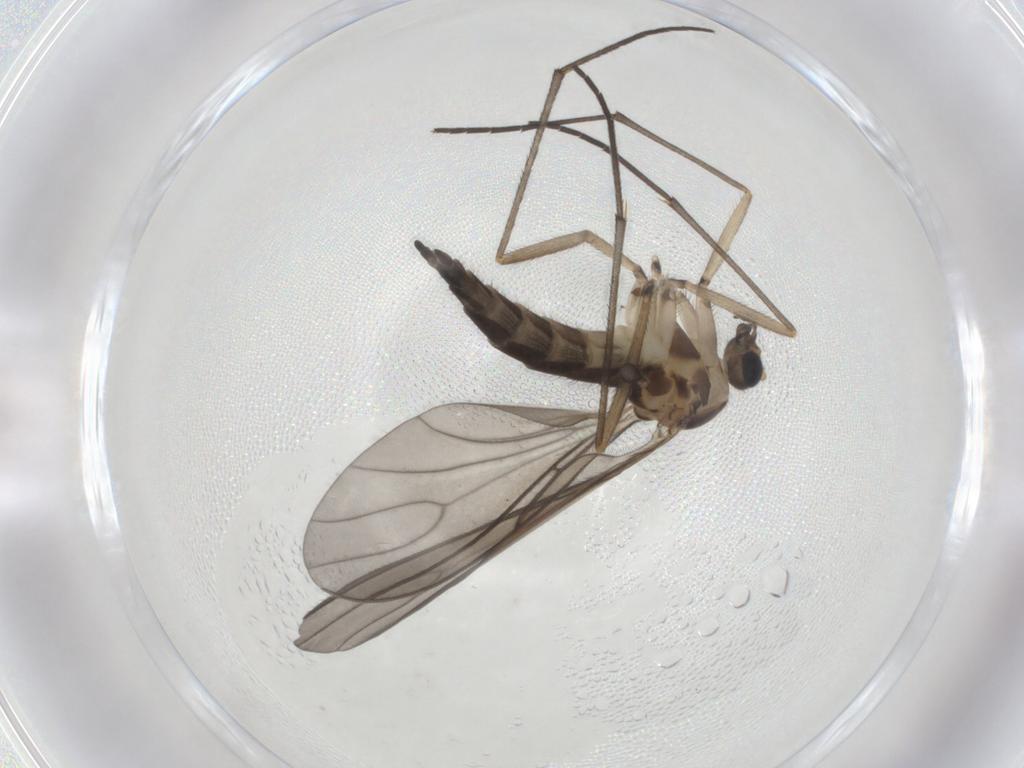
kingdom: Animalia
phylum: Arthropoda
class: Insecta
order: Diptera
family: Sciaridae
